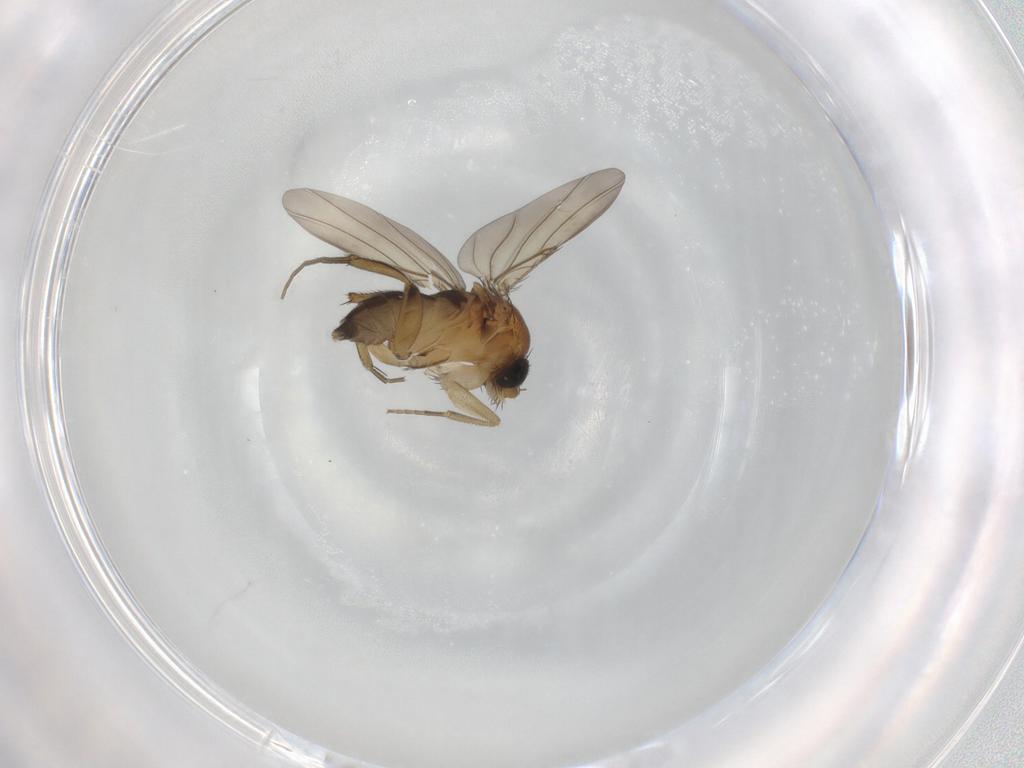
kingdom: Animalia
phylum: Arthropoda
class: Insecta
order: Diptera
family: Phoridae
